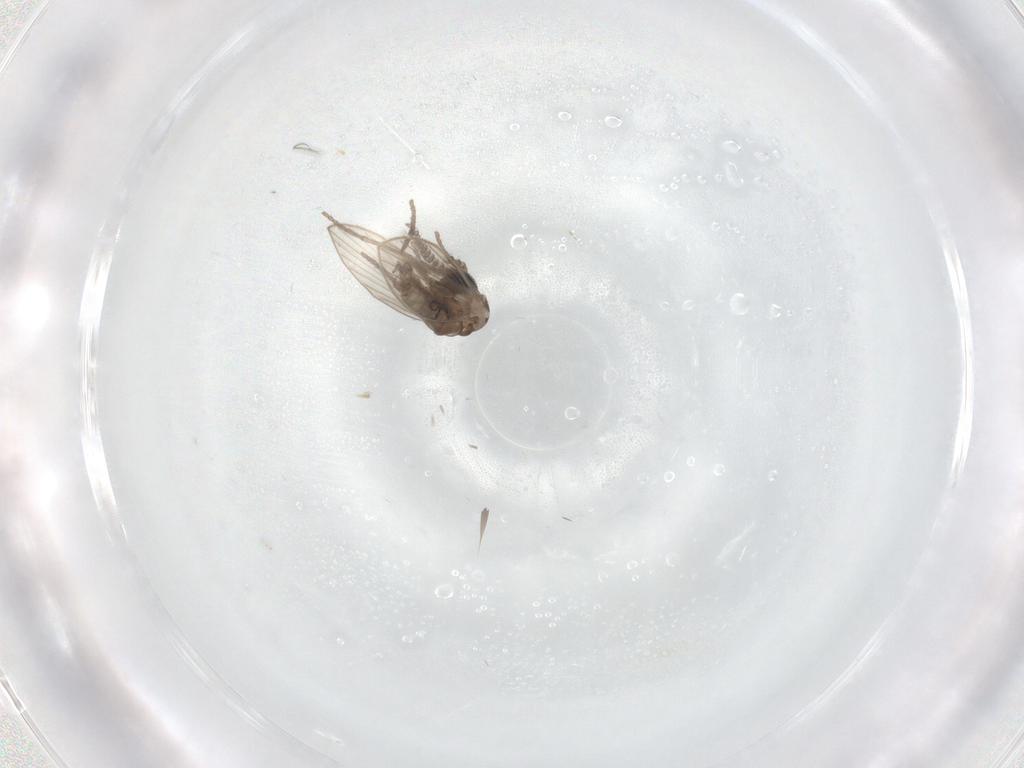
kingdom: Animalia
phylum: Arthropoda
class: Insecta
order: Diptera
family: Psychodidae
